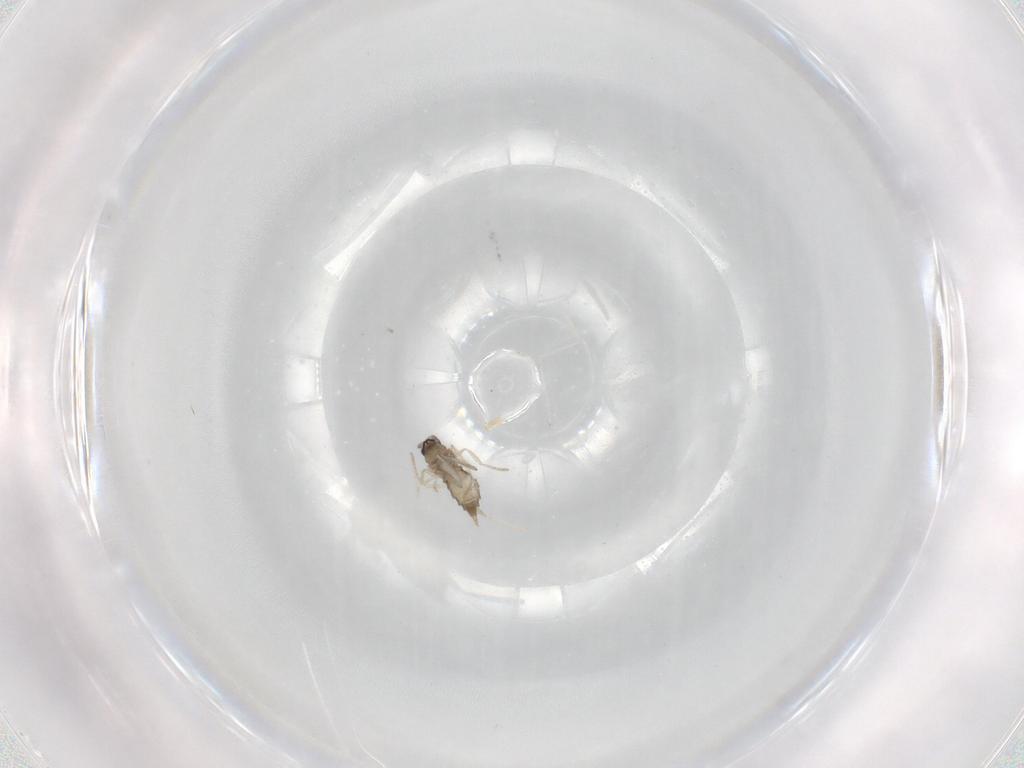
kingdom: Animalia
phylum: Arthropoda
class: Insecta
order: Diptera
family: Cecidomyiidae
